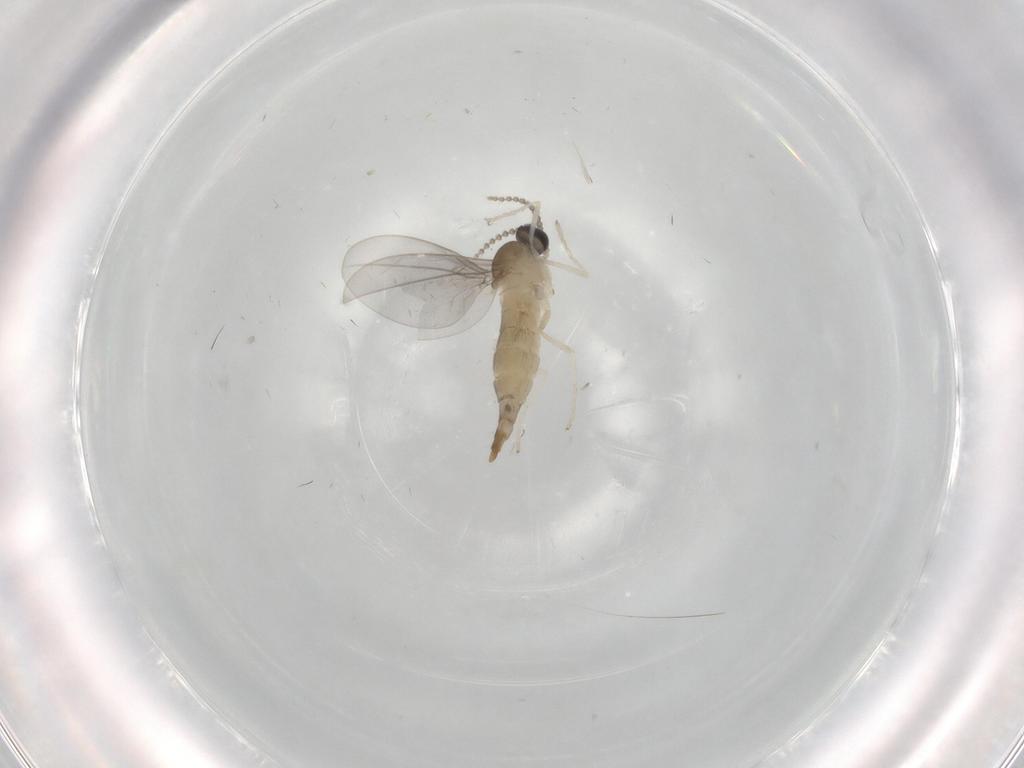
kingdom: Animalia
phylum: Arthropoda
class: Insecta
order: Diptera
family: Cecidomyiidae
